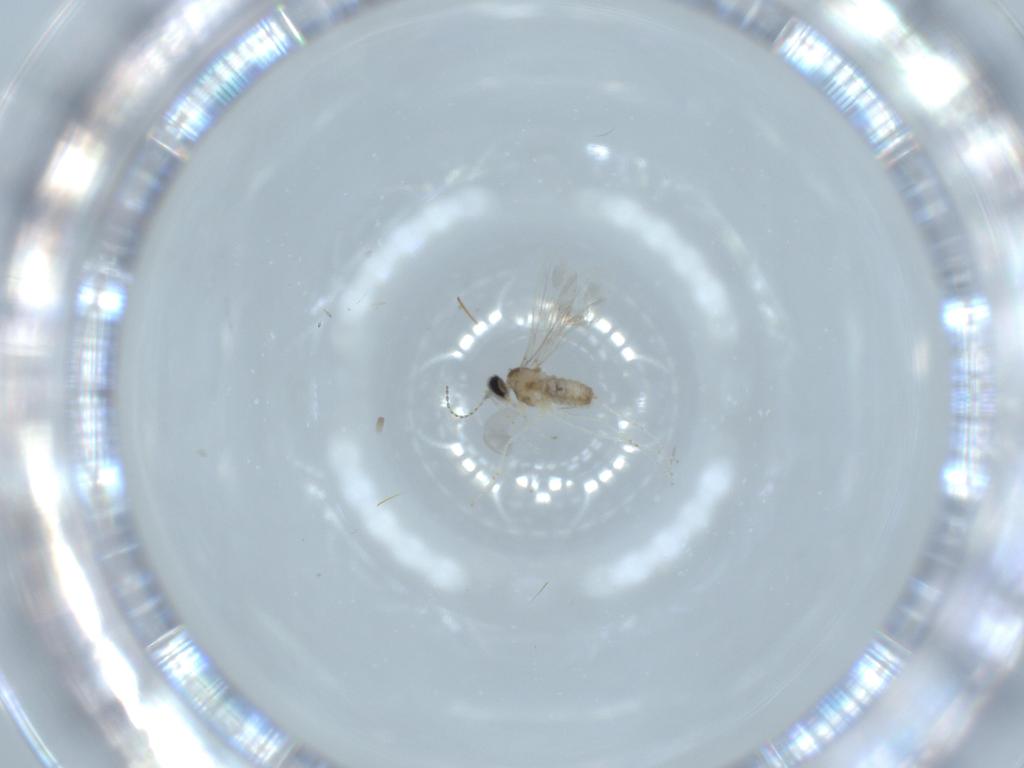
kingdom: Animalia
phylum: Arthropoda
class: Insecta
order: Diptera
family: Cecidomyiidae
